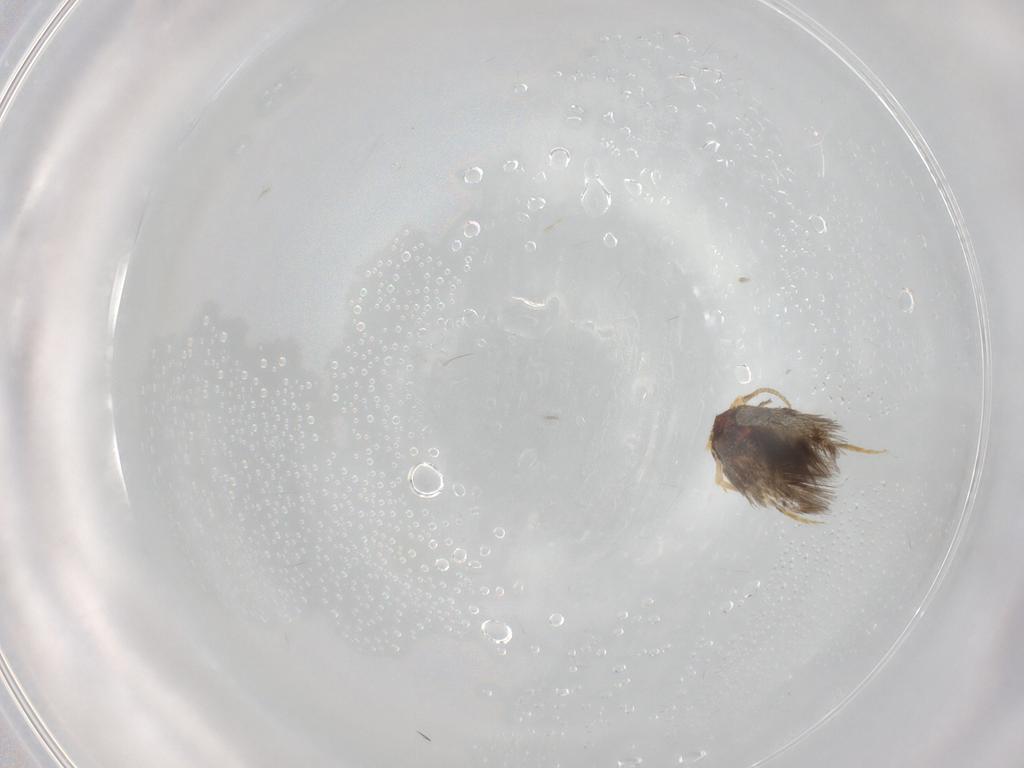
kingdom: Animalia
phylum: Arthropoda
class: Insecta
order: Lepidoptera
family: Nepticulidae
